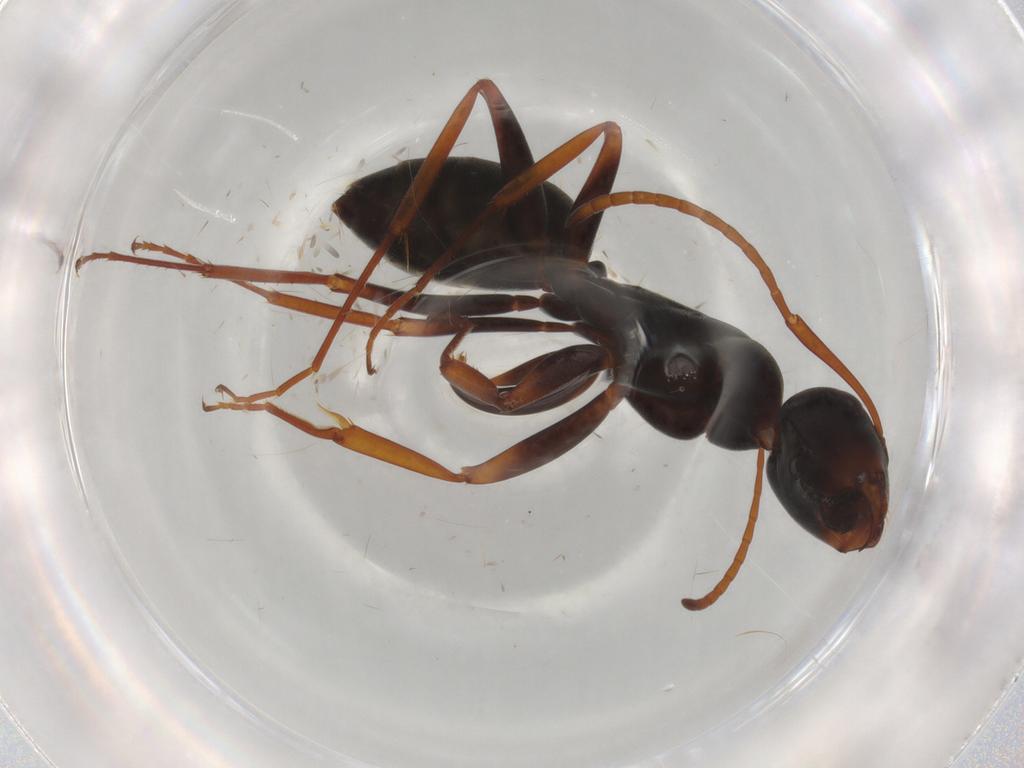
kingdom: Animalia
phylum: Arthropoda
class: Insecta
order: Hymenoptera
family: Formicidae
